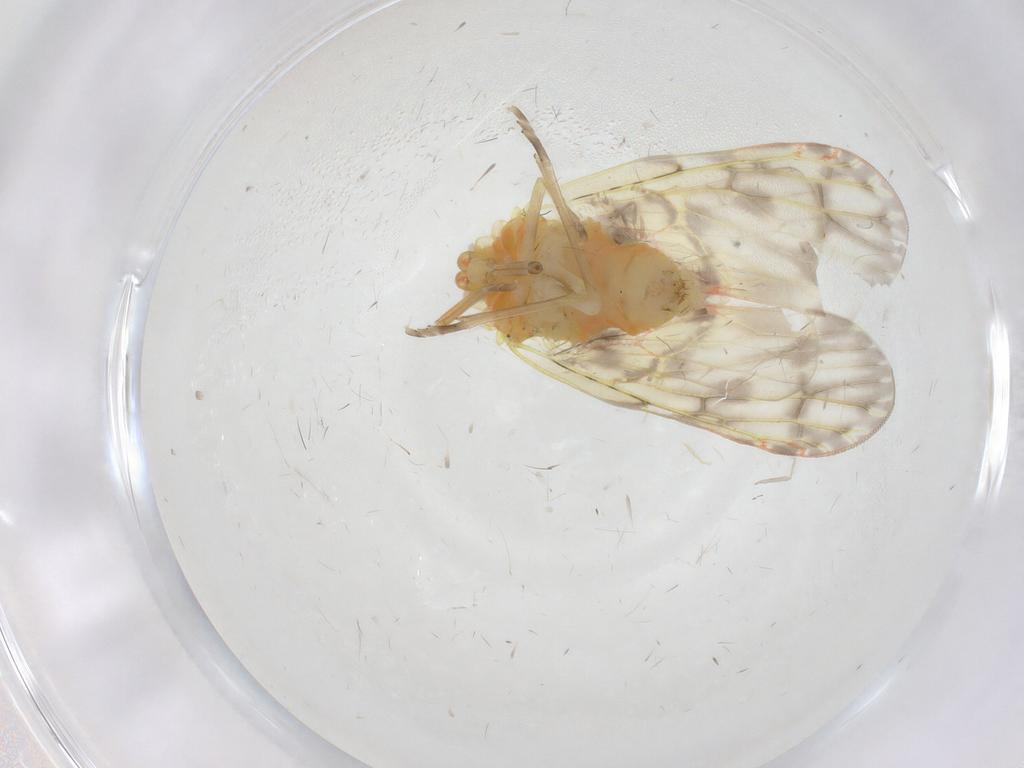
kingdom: Animalia
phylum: Arthropoda
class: Insecta
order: Hemiptera
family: Derbidae
